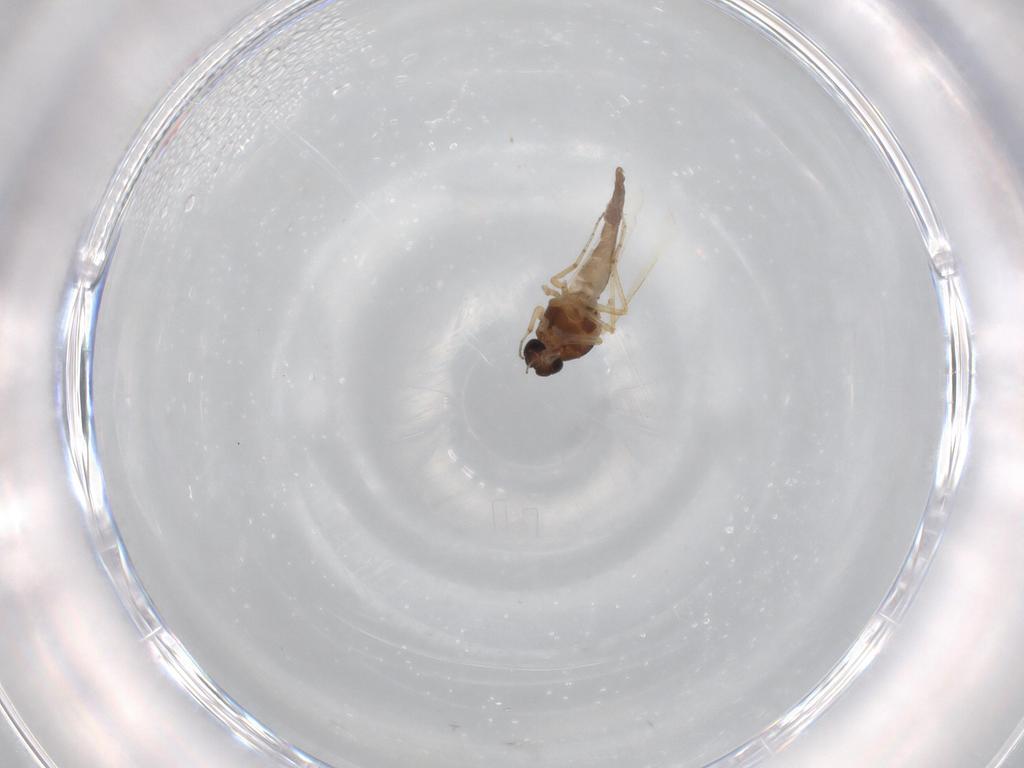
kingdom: Animalia
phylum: Arthropoda
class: Insecta
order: Diptera
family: Ceratopogonidae
